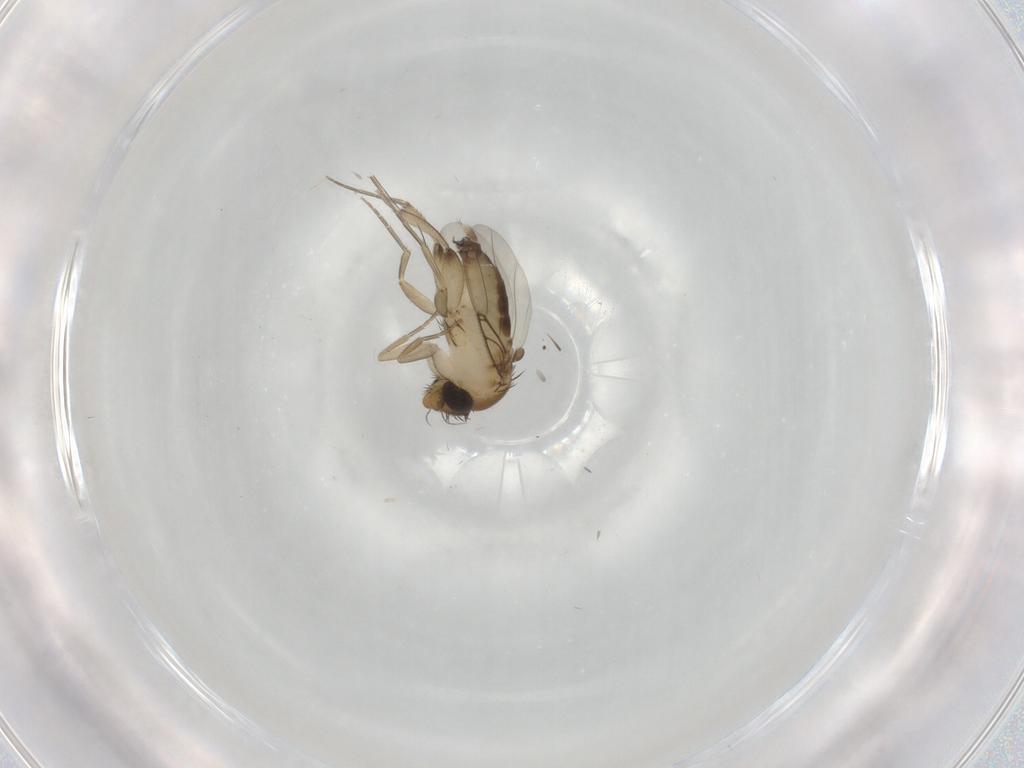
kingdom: Animalia
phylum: Arthropoda
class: Insecta
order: Diptera
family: Phoridae
